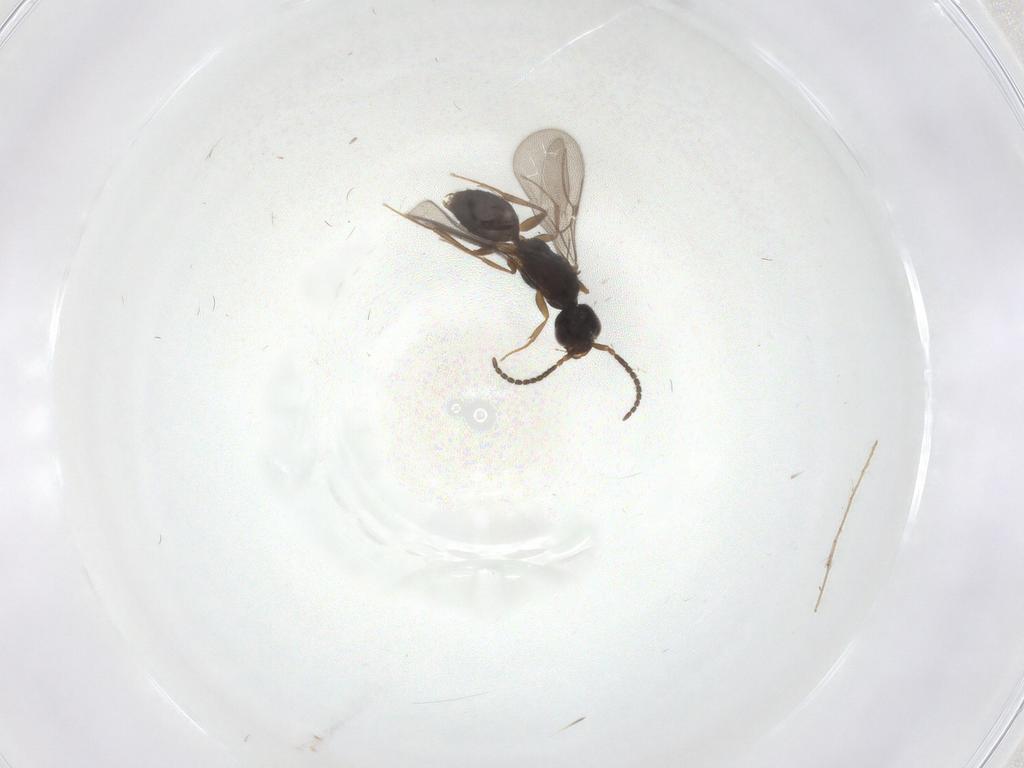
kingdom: Animalia
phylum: Arthropoda
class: Insecta
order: Hymenoptera
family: Bethylidae
